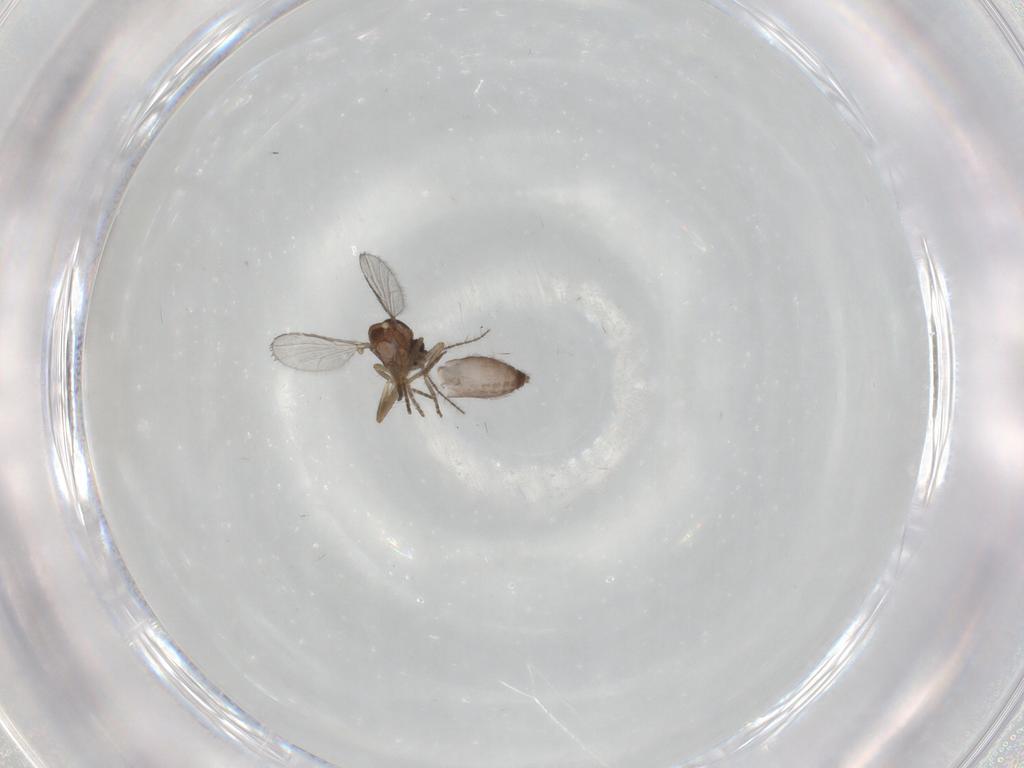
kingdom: Animalia
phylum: Arthropoda
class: Insecta
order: Diptera
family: Ceratopogonidae
